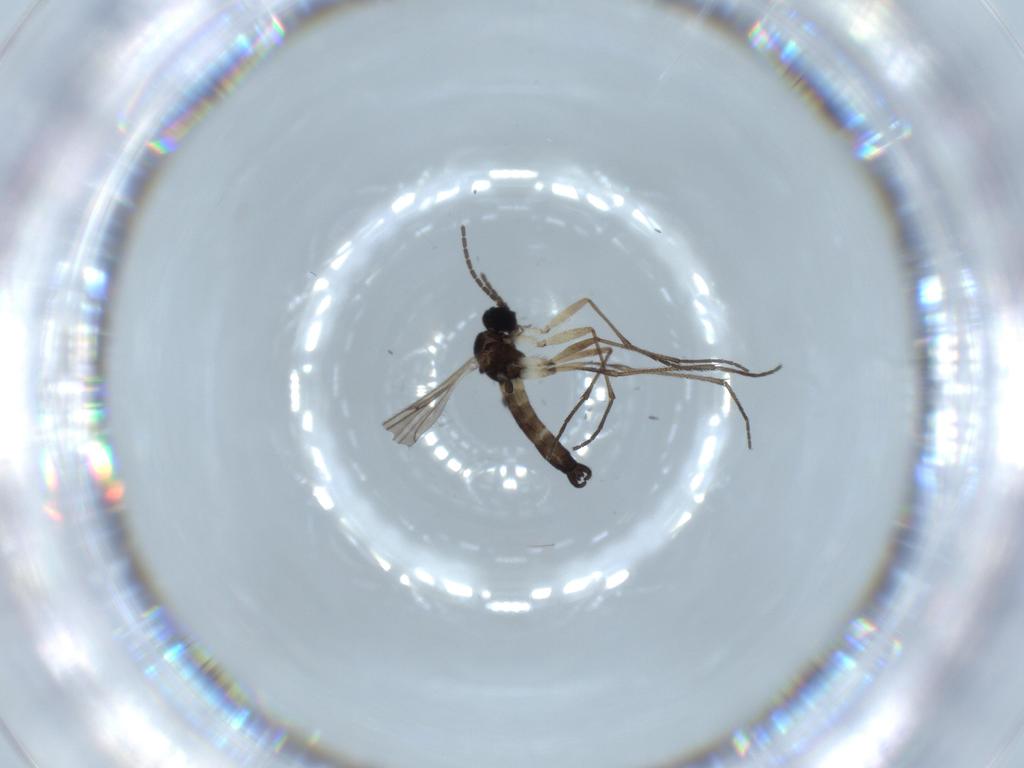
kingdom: Animalia
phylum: Arthropoda
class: Insecta
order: Diptera
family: Sciaridae
